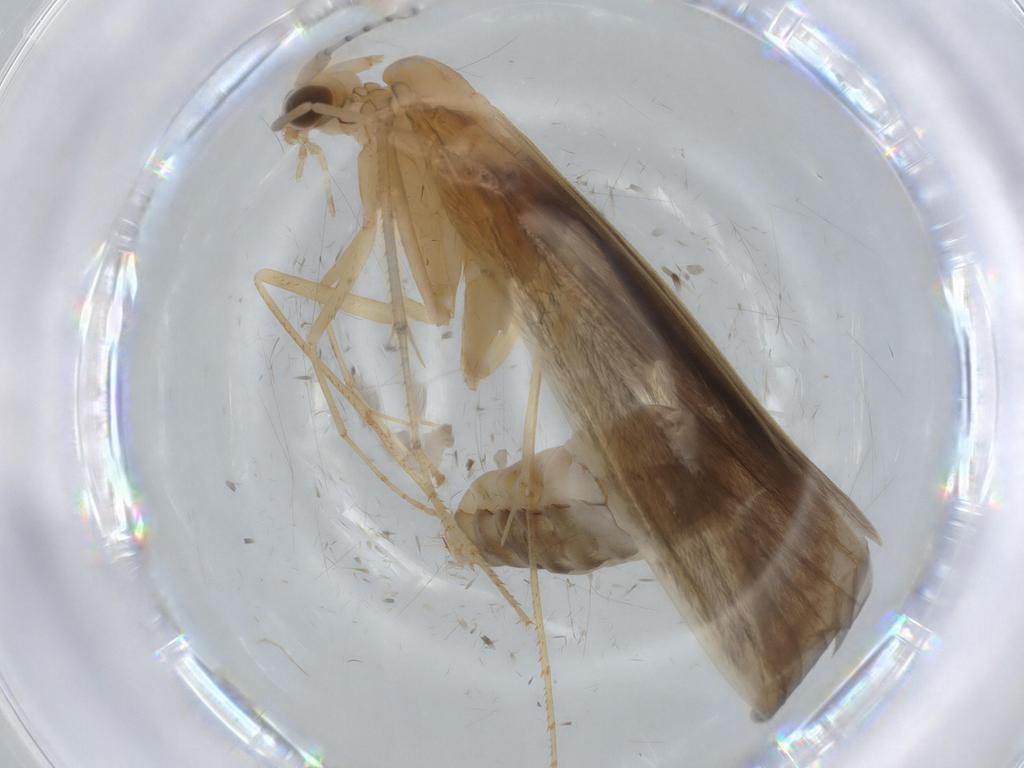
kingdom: Animalia
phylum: Arthropoda
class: Insecta
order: Trichoptera
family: Leptoceridae
